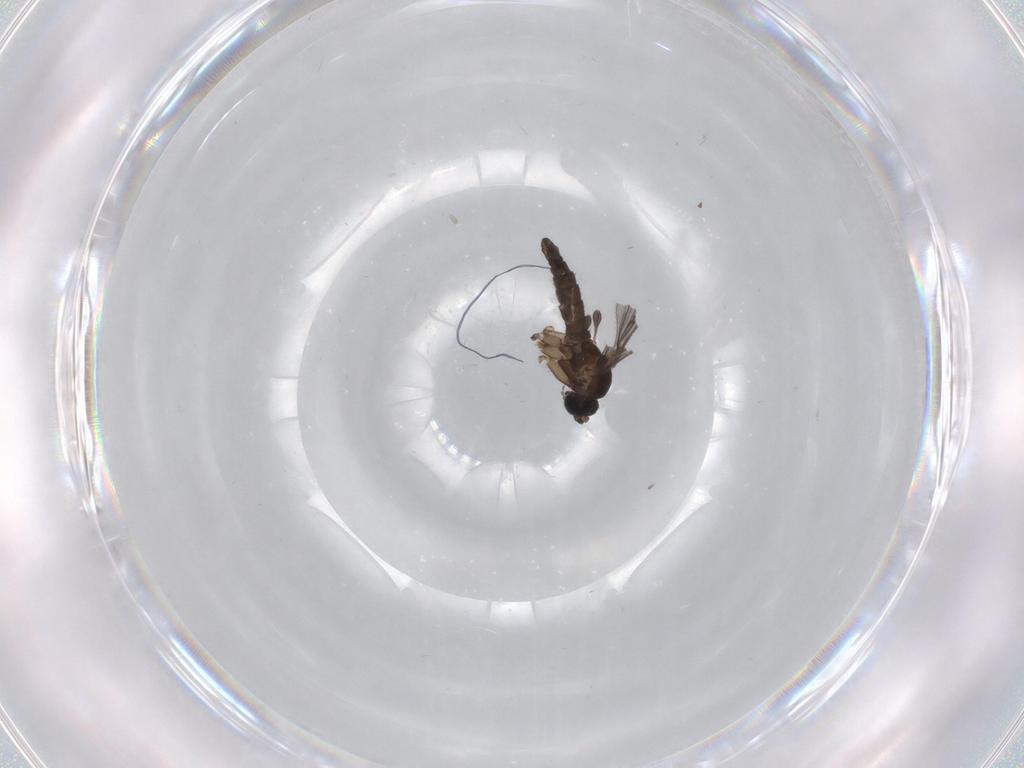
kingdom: Animalia
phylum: Arthropoda
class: Insecta
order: Diptera
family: Sciaridae
